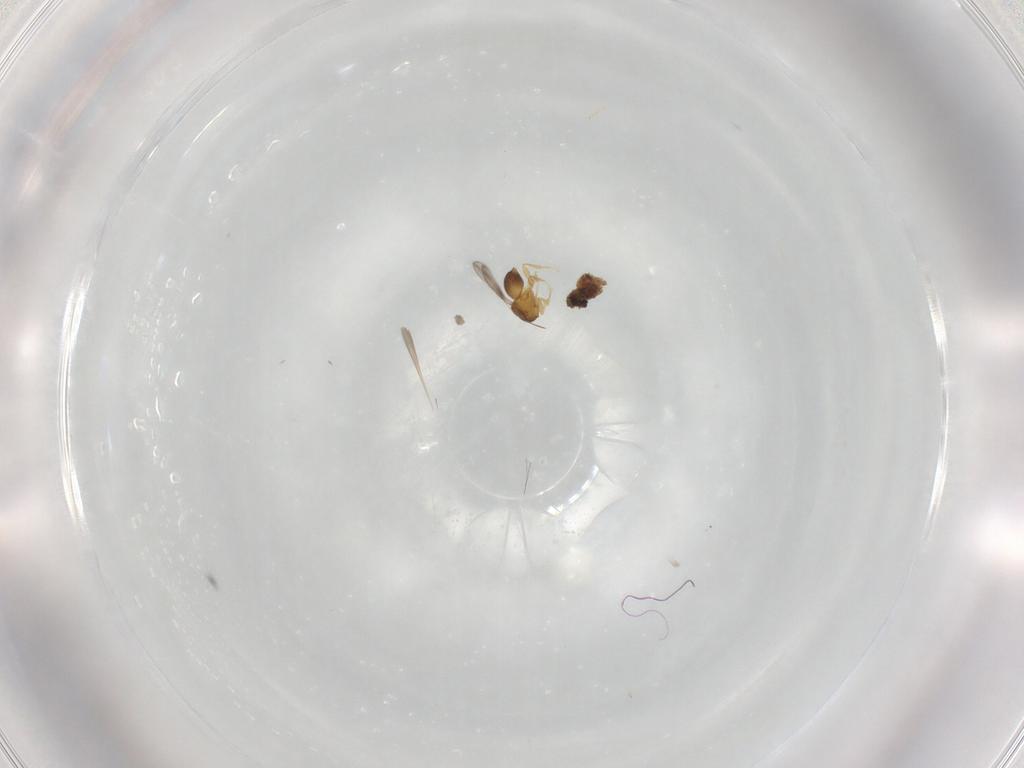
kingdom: Animalia
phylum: Arthropoda
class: Insecta
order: Hymenoptera
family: Ceraphronidae
